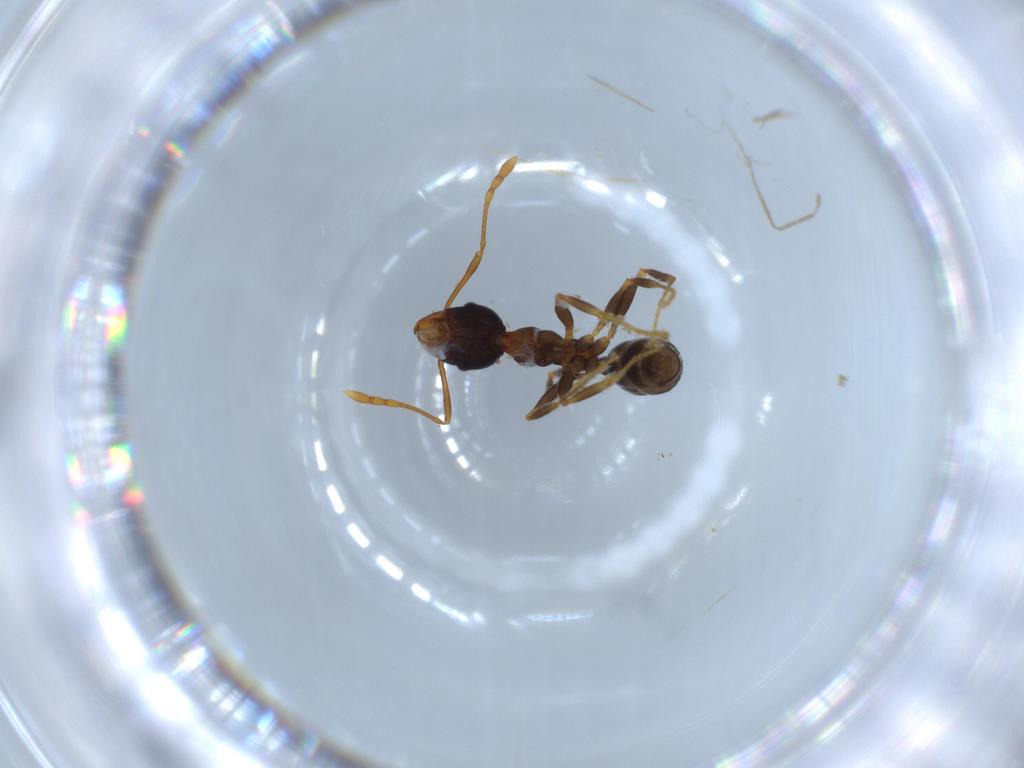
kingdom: Animalia
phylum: Arthropoda
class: Insecta
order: Hymenoptera
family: Formicidae
